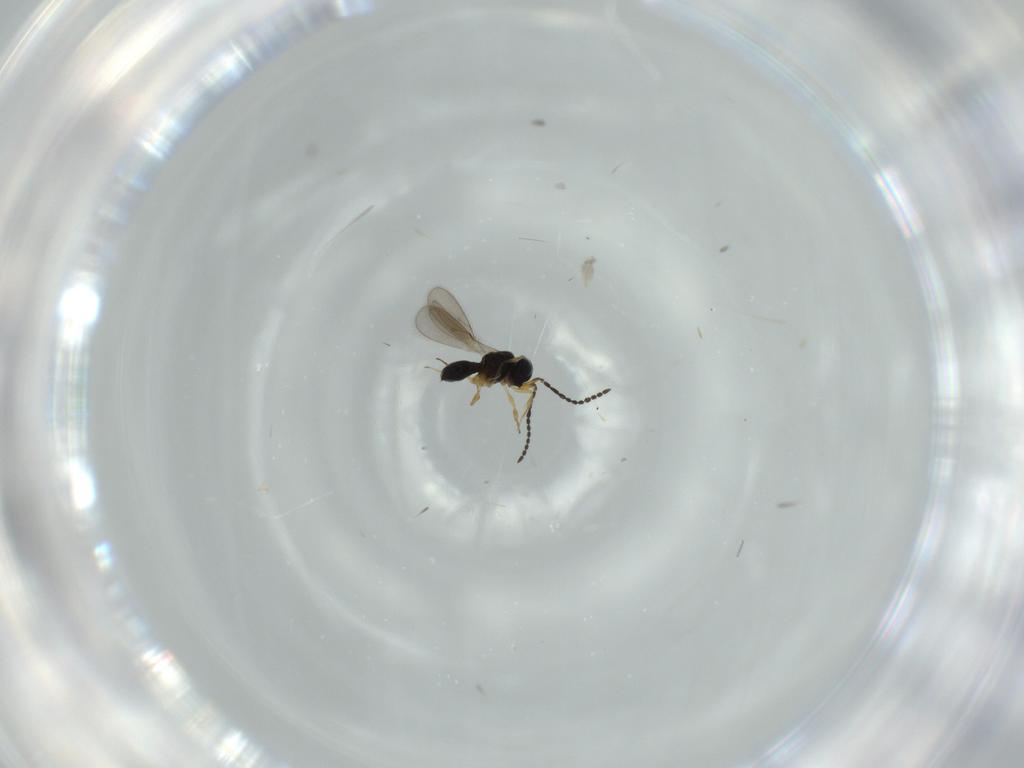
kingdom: Animalia
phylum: Arthropoda
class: Insecta
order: Hymenoptera
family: Scelionidae
